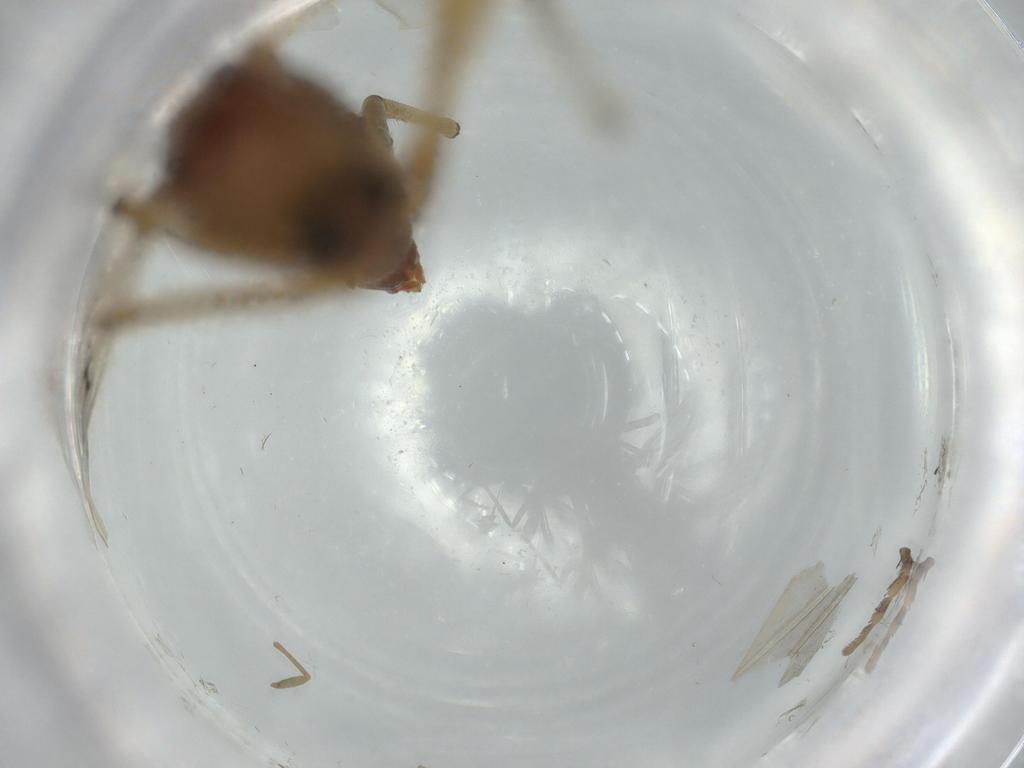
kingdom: Animalia
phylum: Arthropoda
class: Insecta
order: Diptera
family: Chironomidae
